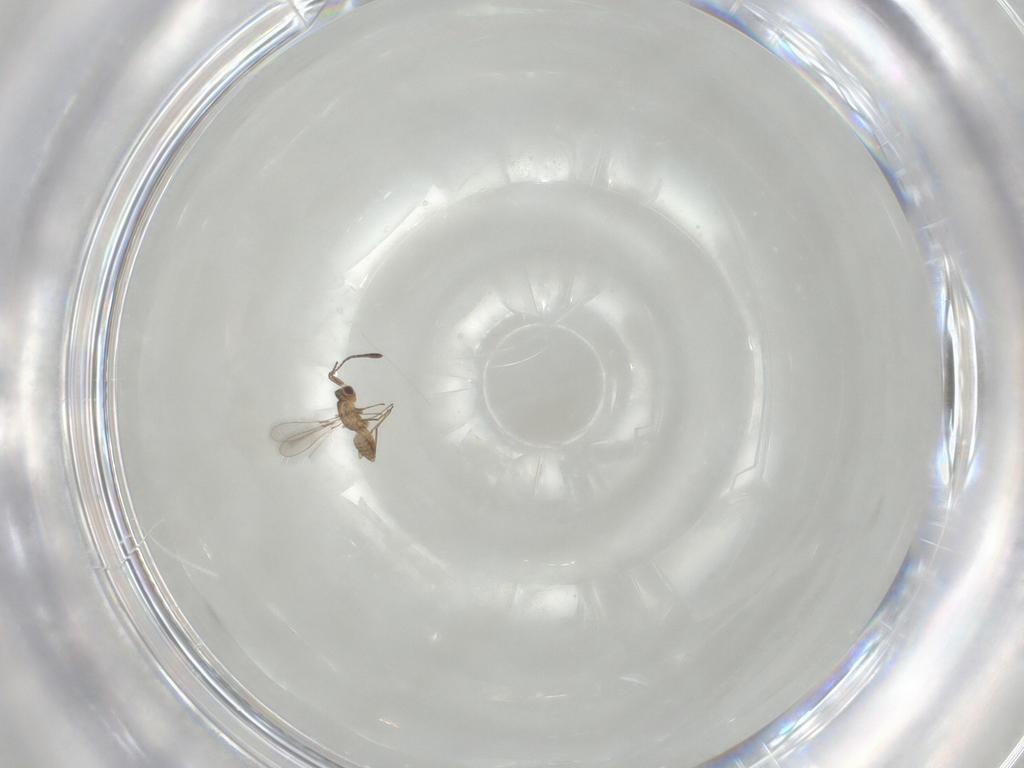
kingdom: Animalia
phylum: Arthropoda
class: Insecta
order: Hymenoptera
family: Mymaridae
